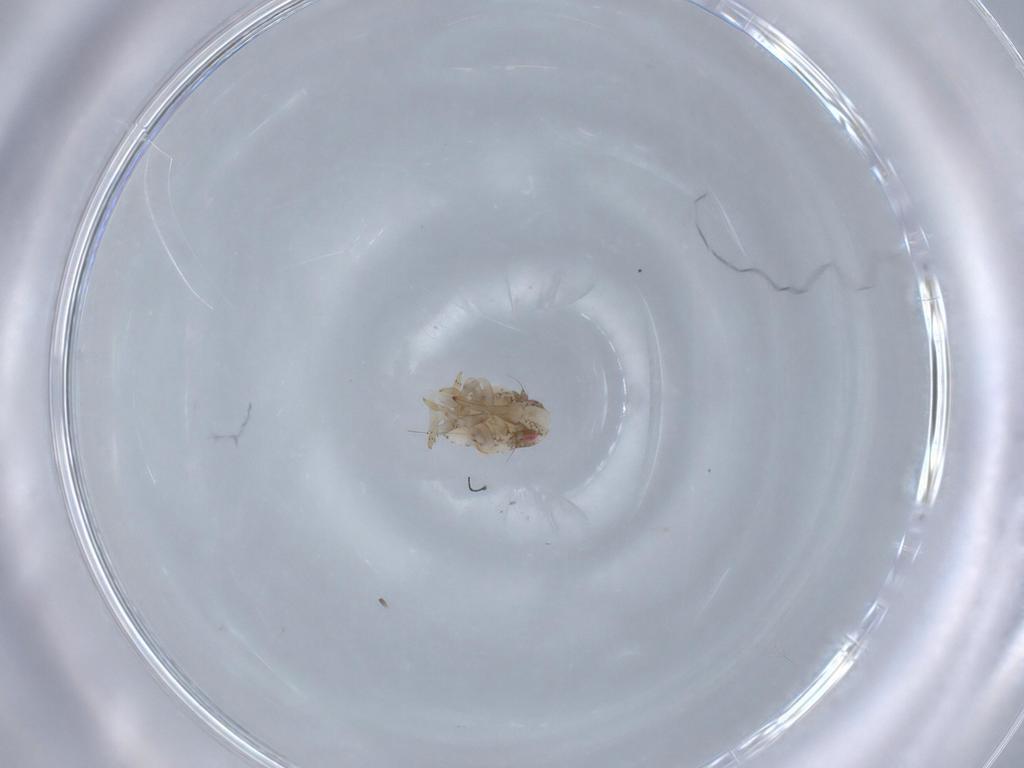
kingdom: Animalia
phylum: Arthropoda
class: Insecta
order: Hemiptera
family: Acanaloniidae
